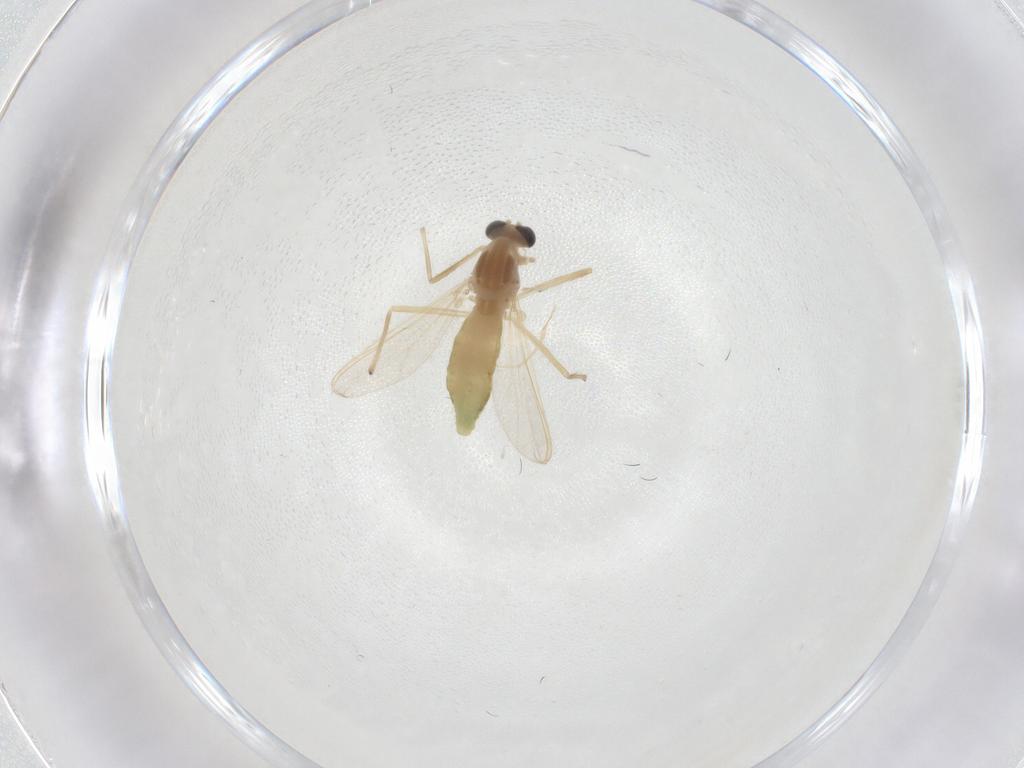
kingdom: Animalia
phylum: Arthropoda
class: Insecta
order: Diptera
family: Chironomidae
